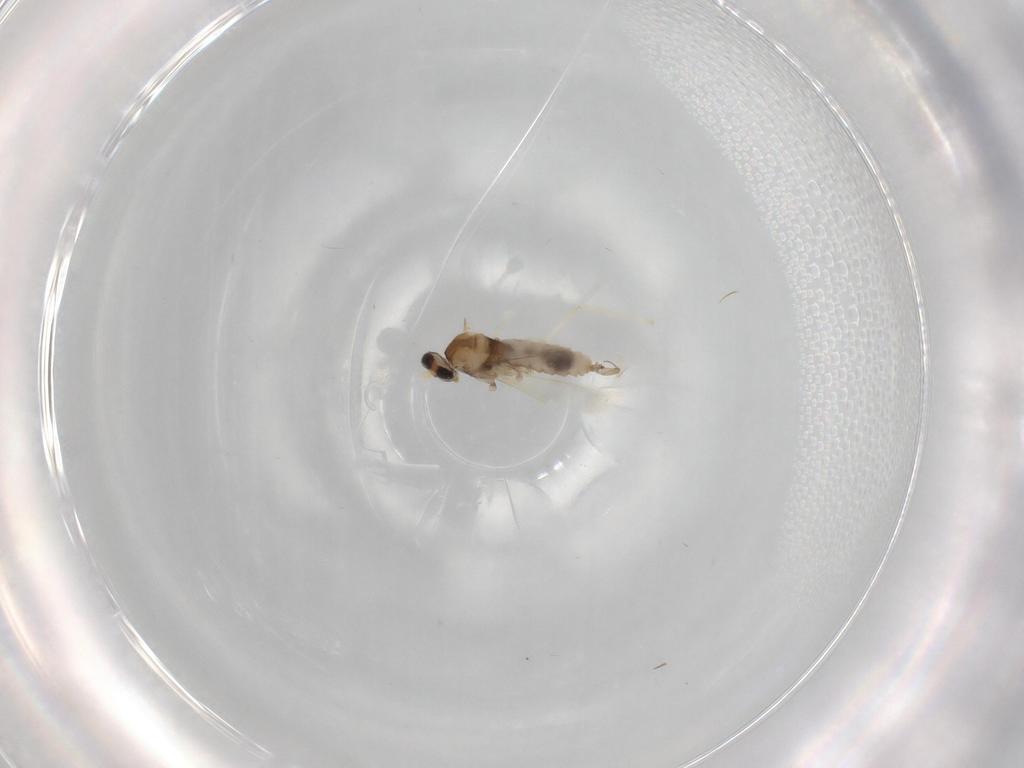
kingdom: Animalia
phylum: Arthropoda
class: Insecta
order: Diptera
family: Cecidomyiidae
